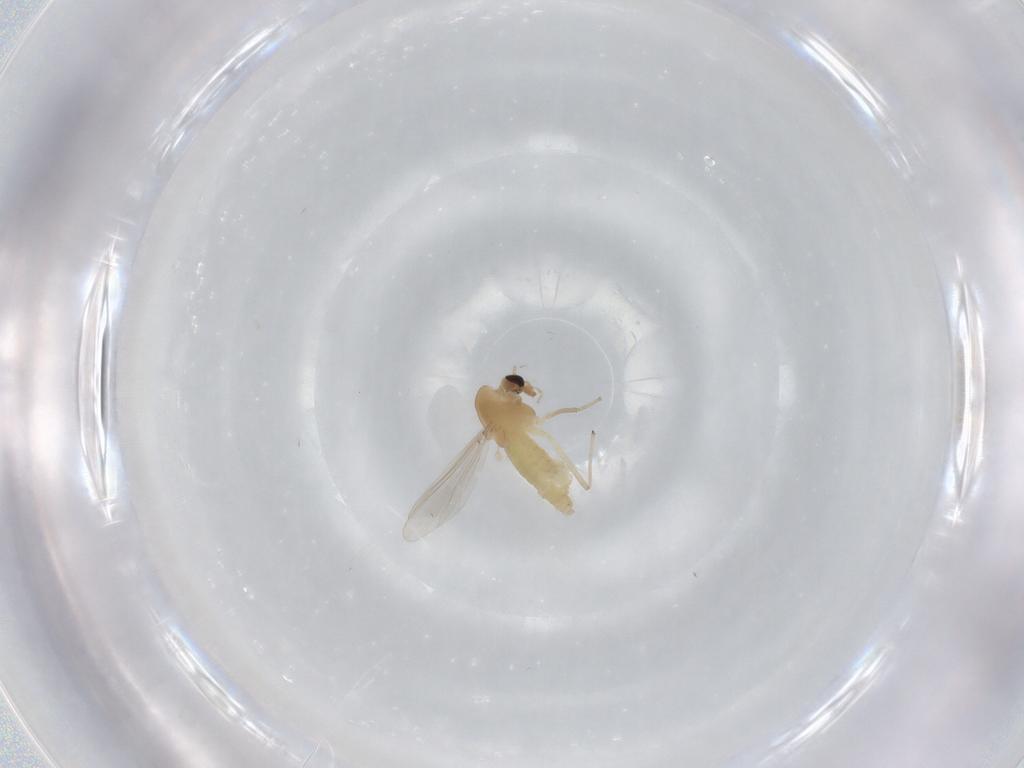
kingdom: Animalia
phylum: Arthropoda
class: Insecta
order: Diptera
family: Chironomidae
